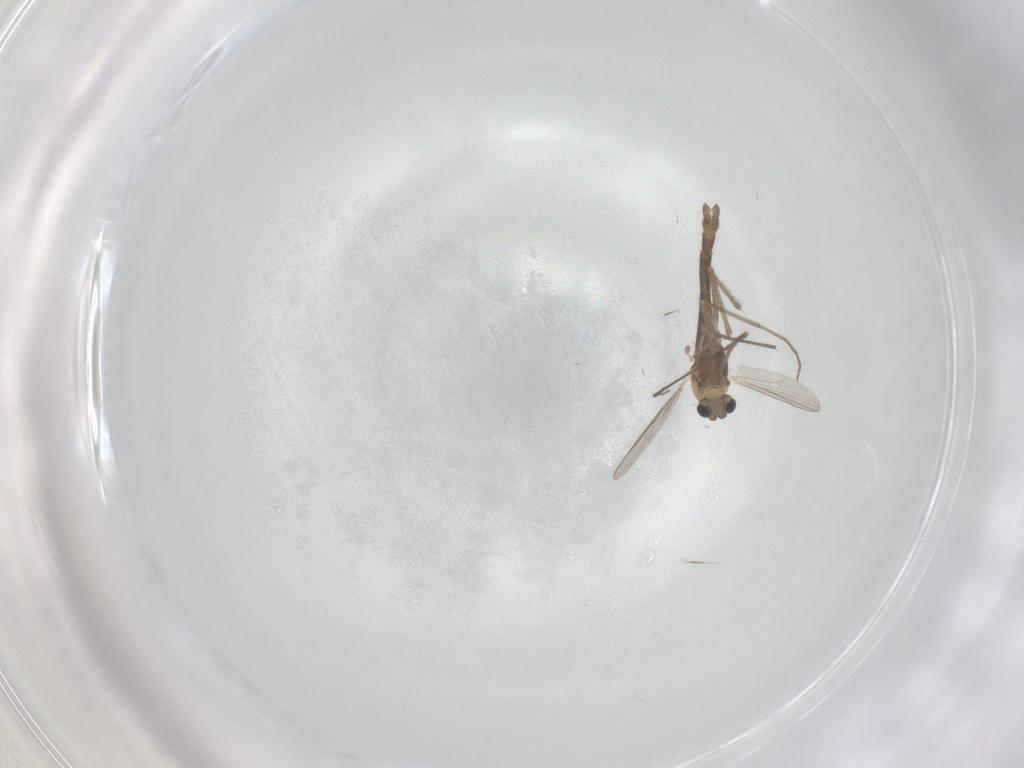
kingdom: Animalia
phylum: Arthropoda
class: Insecta
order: Diptera
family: Chironomidae
